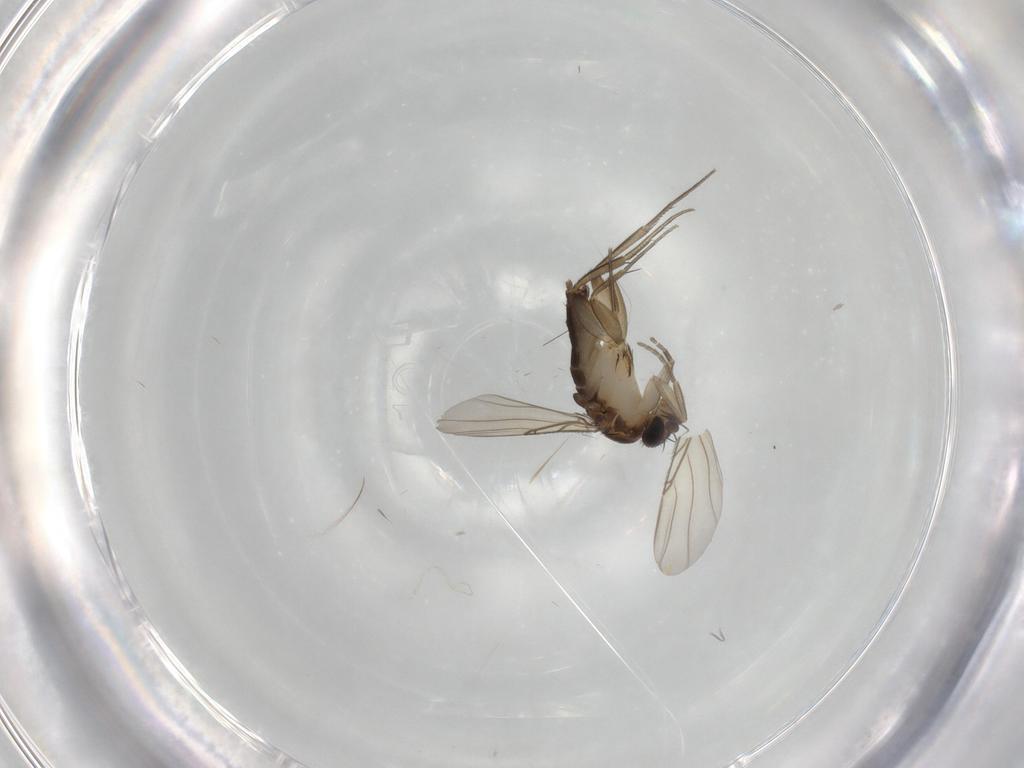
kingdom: Animalia
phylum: Arthropoda
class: Insecta
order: Diptera
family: Phoridae
